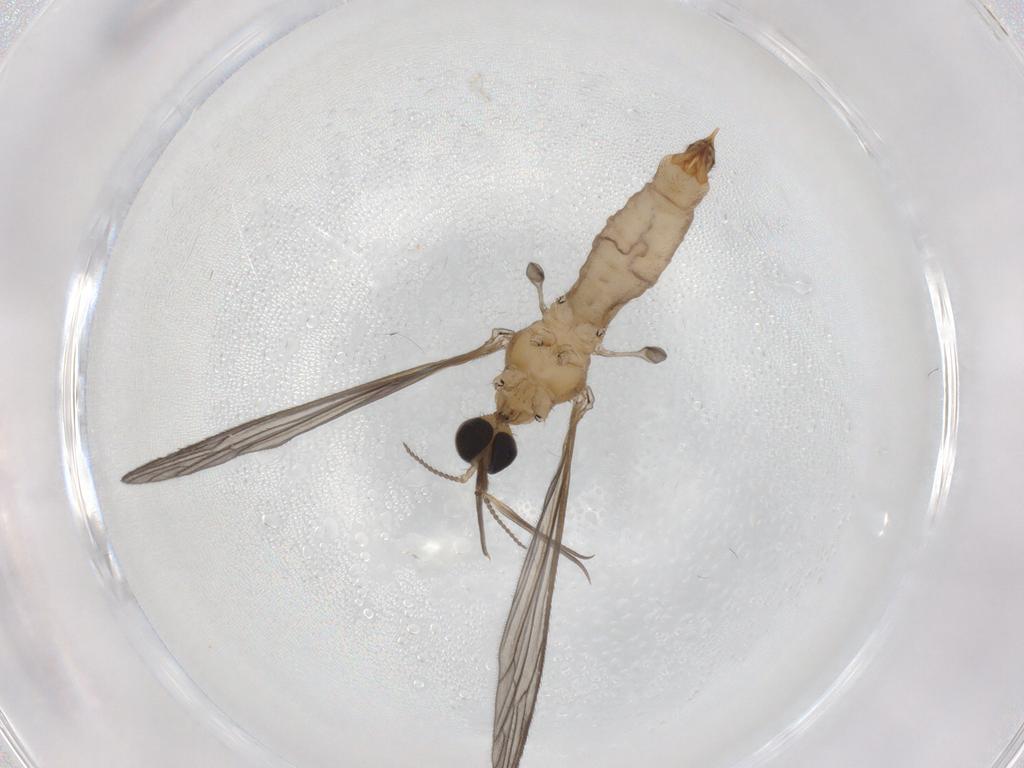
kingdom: Animalia
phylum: Arthropoda
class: Insecta
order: Diptera
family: Limoniidae
